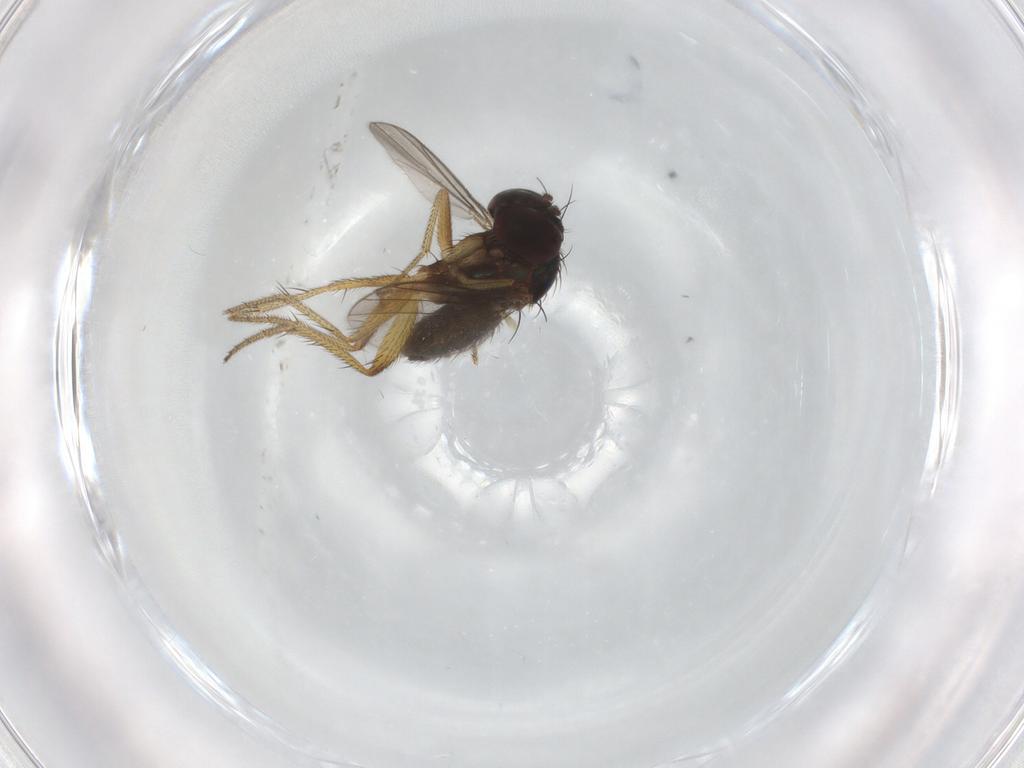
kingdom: Animalia
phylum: Arthropoda
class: Insecta
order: Diptera
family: Dolichopodidae
